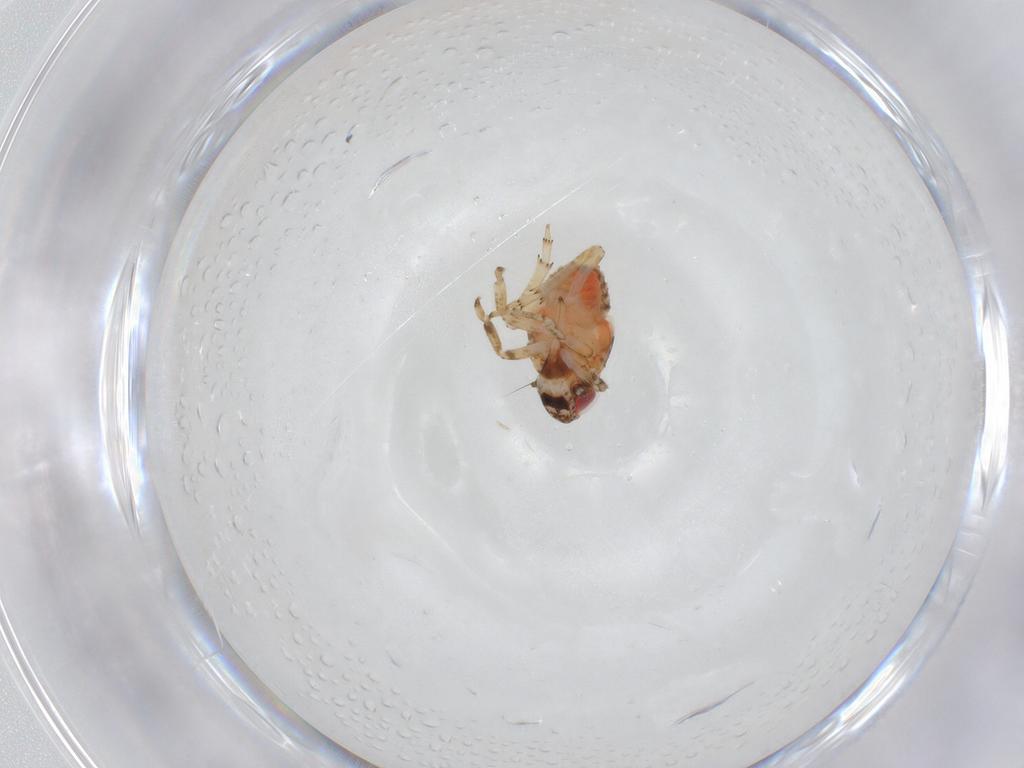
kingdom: Animalia
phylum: Arthropoda
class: Insecta
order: Hemiptera
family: Issidae
